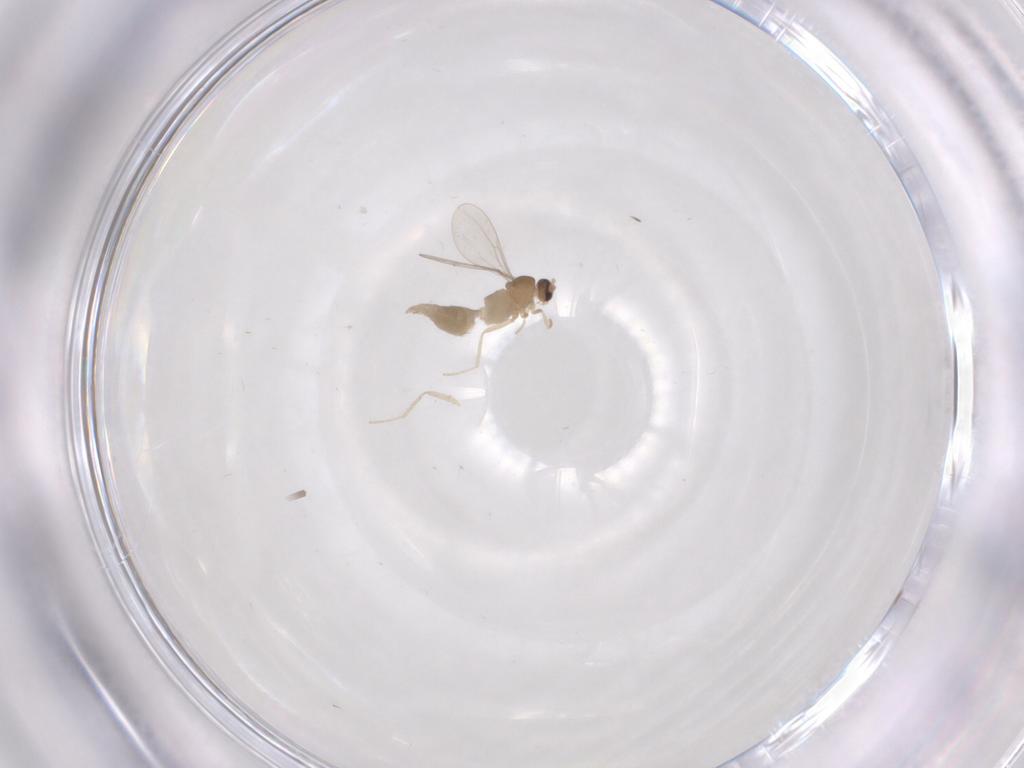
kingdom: Animalia
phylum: Arthropoda
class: Insecta
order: Diptera
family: Cecidomyiidae
